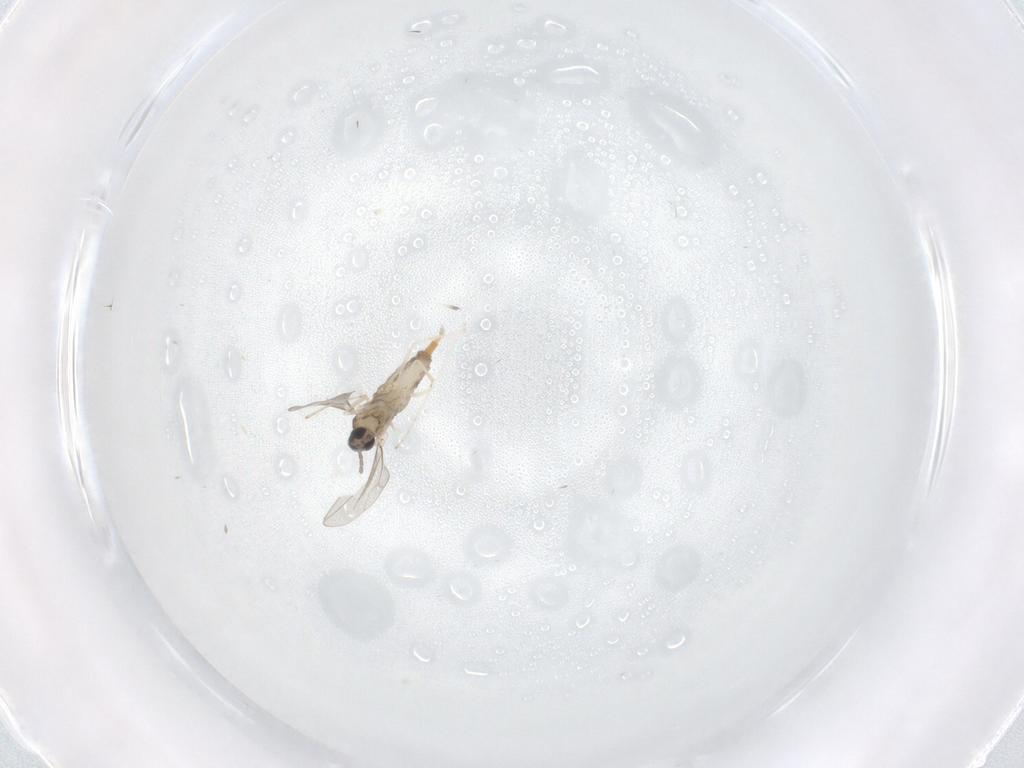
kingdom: Animalia
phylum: Arthropoda
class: Insecta
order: Diptera
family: Cecidomyiidae
